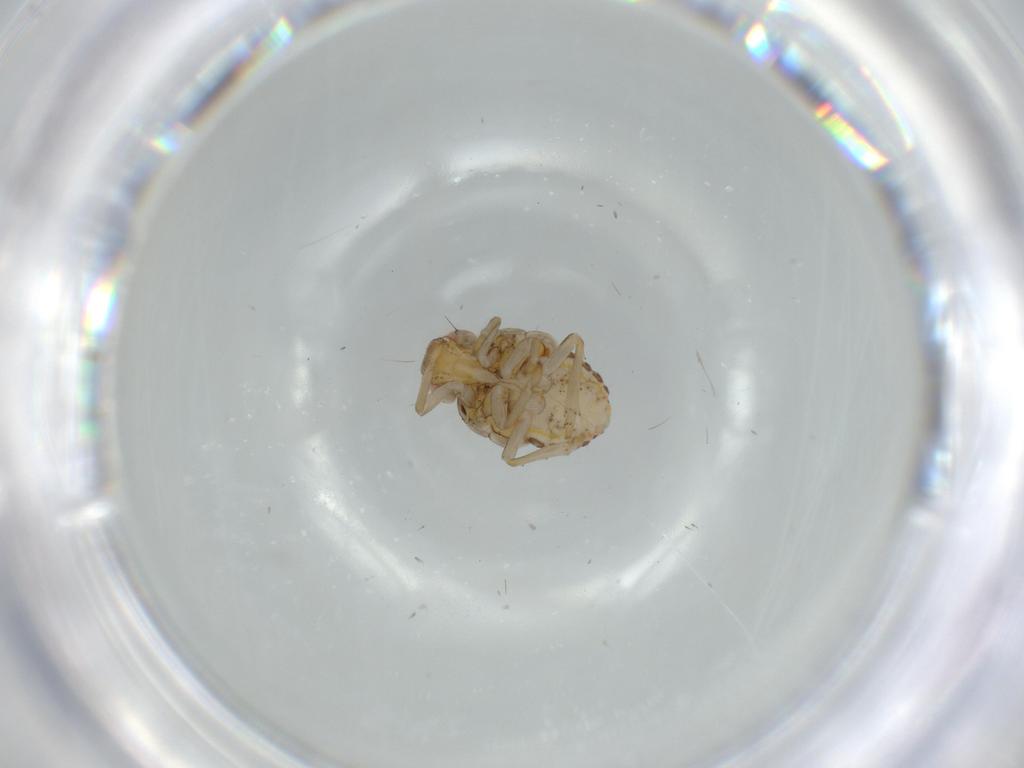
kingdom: Animalia
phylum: Arthropoda
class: Insecta
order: Hemiptera
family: Issidae
